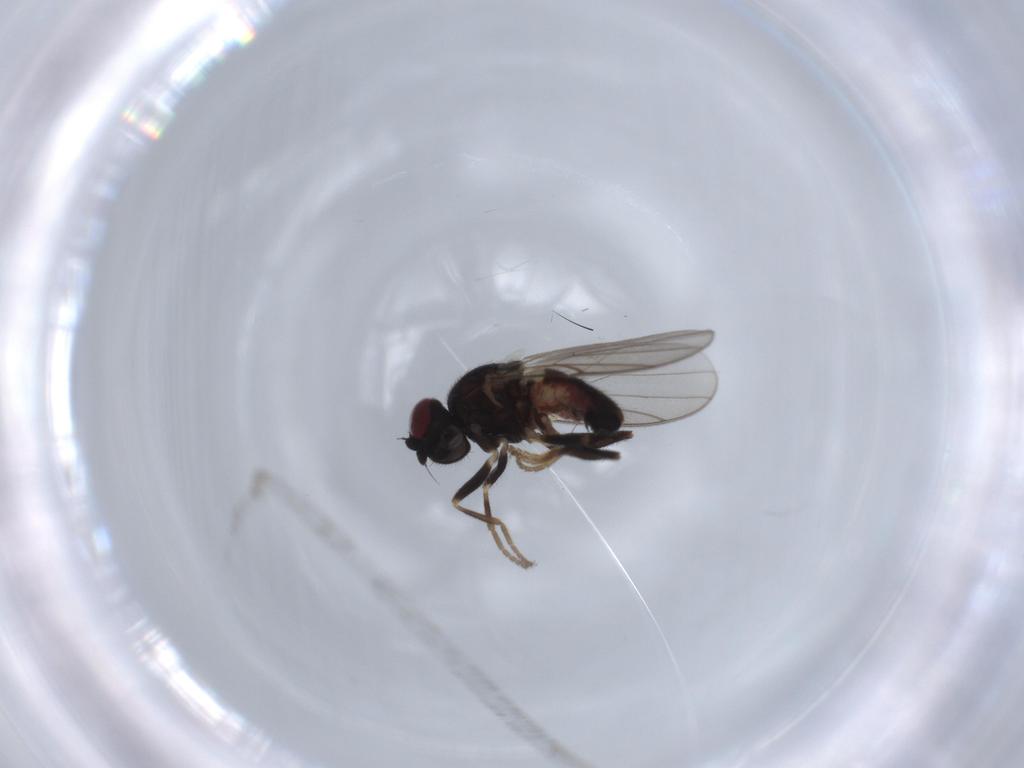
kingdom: Animalia
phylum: Arthropoda
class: Insecta
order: Diptera
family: Chloropidae
